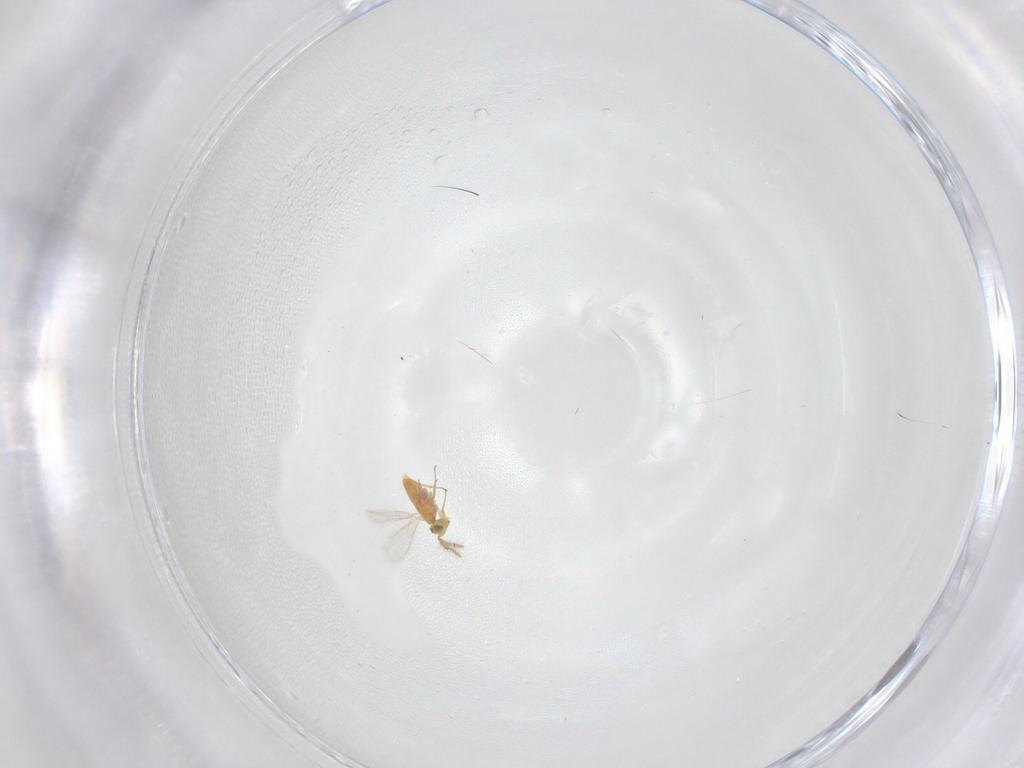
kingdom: Animalia
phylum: Arthropoda
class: Insecta
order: Hymenoptera
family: Aphelinidae
